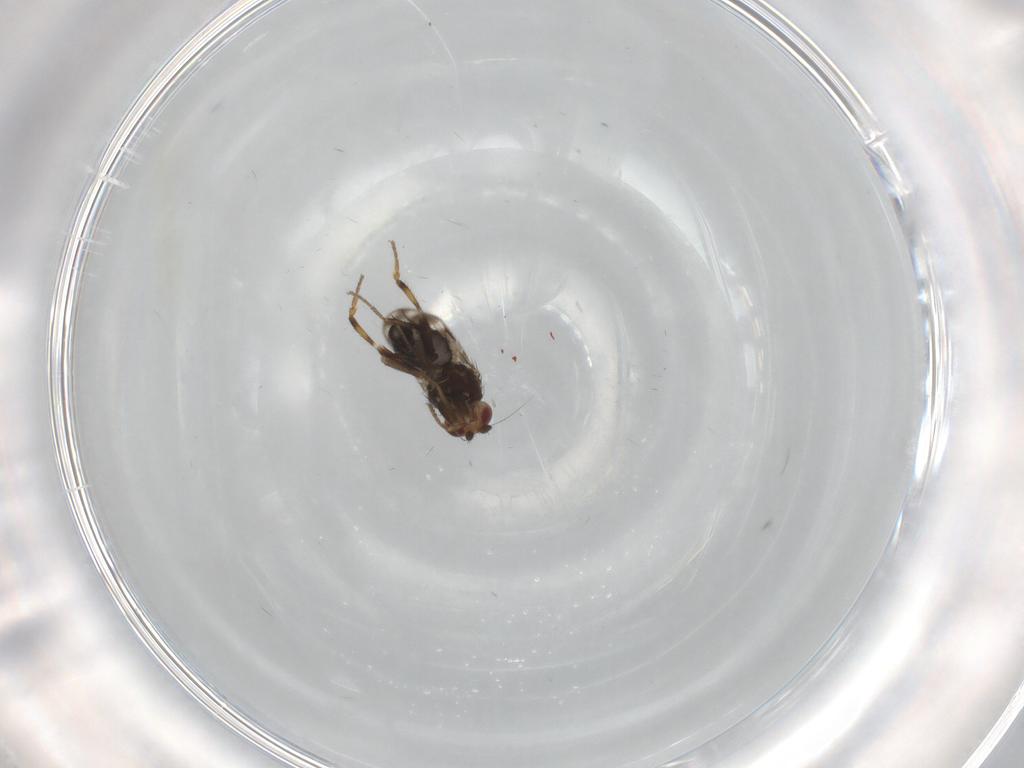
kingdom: Animalia
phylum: Arthropoda
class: Insecta
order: Diptera
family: Sphaeroceridae
